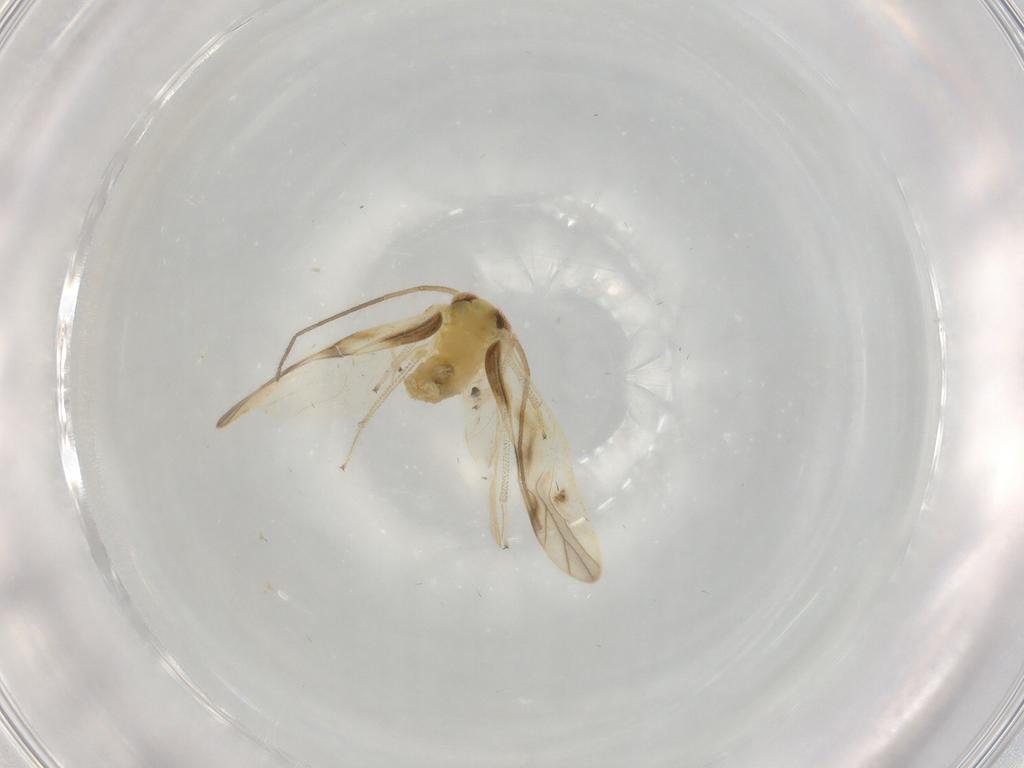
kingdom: Animalia
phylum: Arthropoda
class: Insecta
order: Psocodea
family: Caeciliusidae
